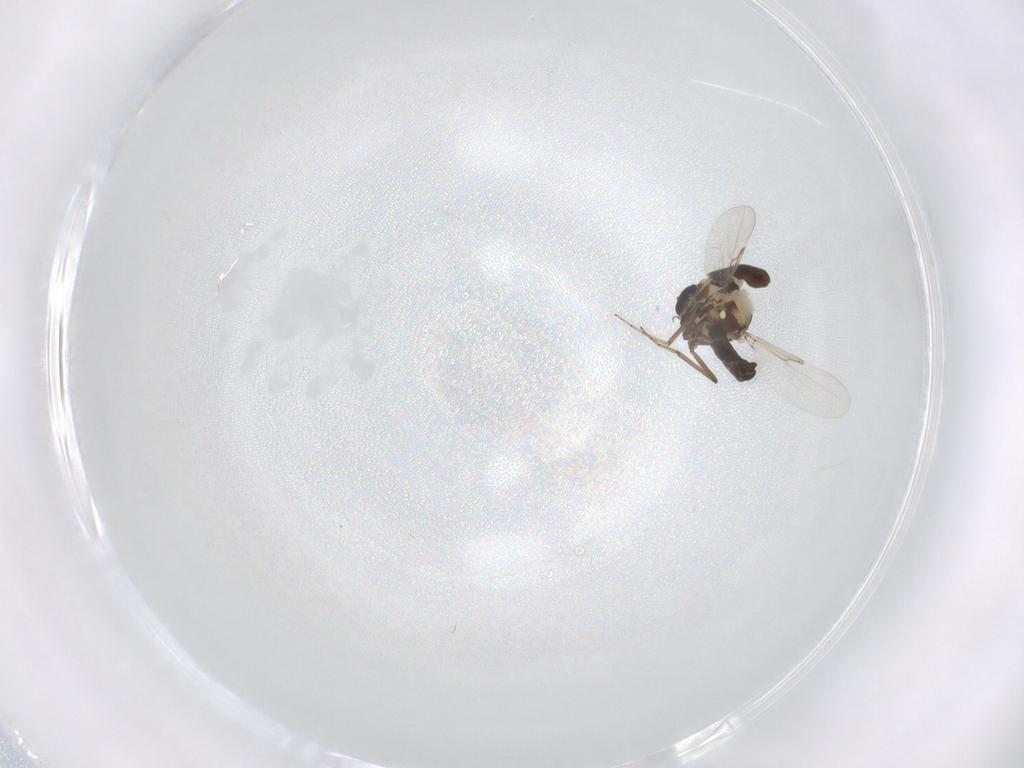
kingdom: Animalia
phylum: Arthropoda
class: Insecta
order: Diptera
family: Ceratopogonidae
